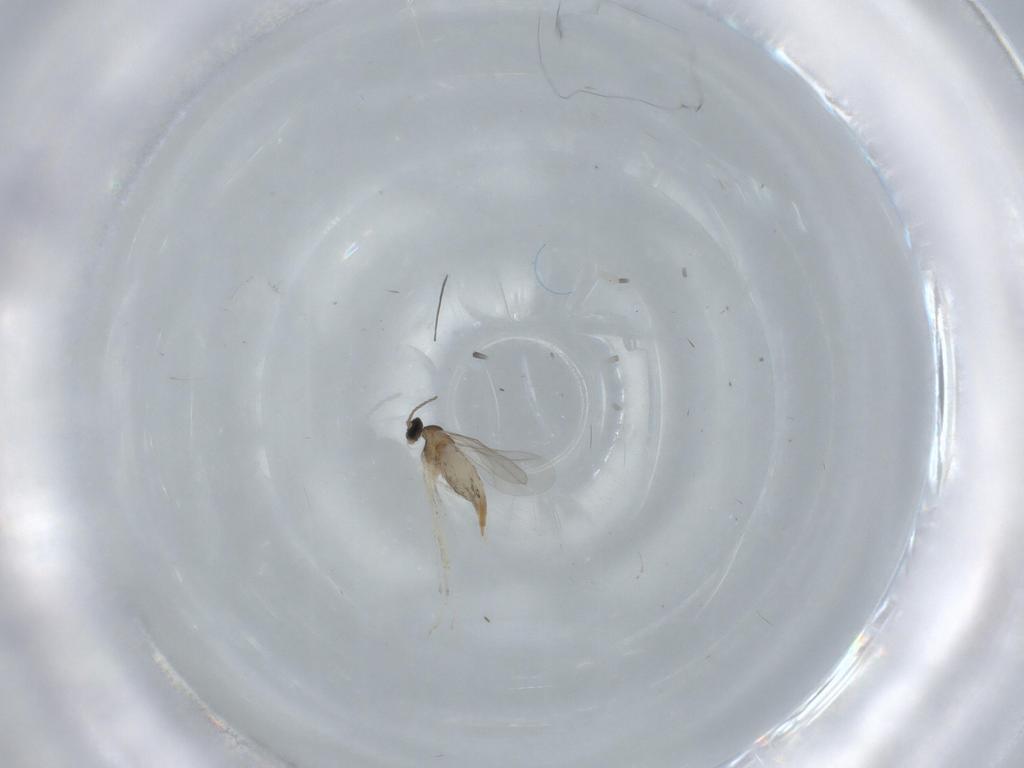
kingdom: Animalia
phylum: Arthropoda
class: Insecta
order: Diptera
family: Cecidomyiidae
